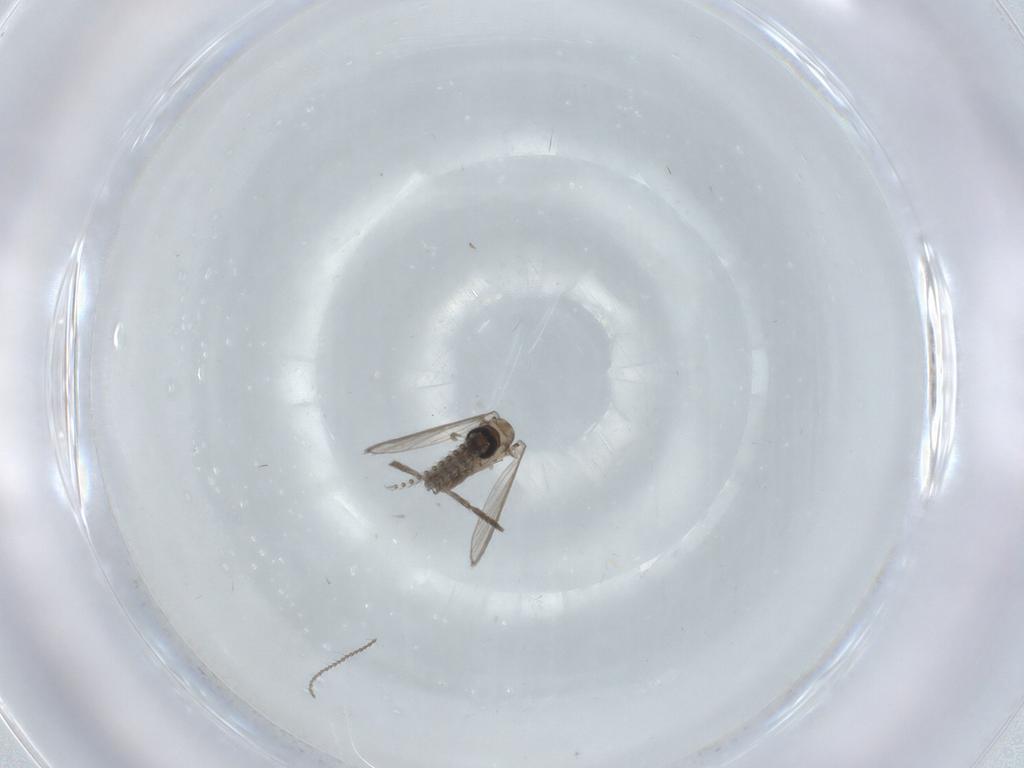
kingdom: Animalia
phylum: Arthropoda
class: Insecta
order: Diptera
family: Psychodidae
